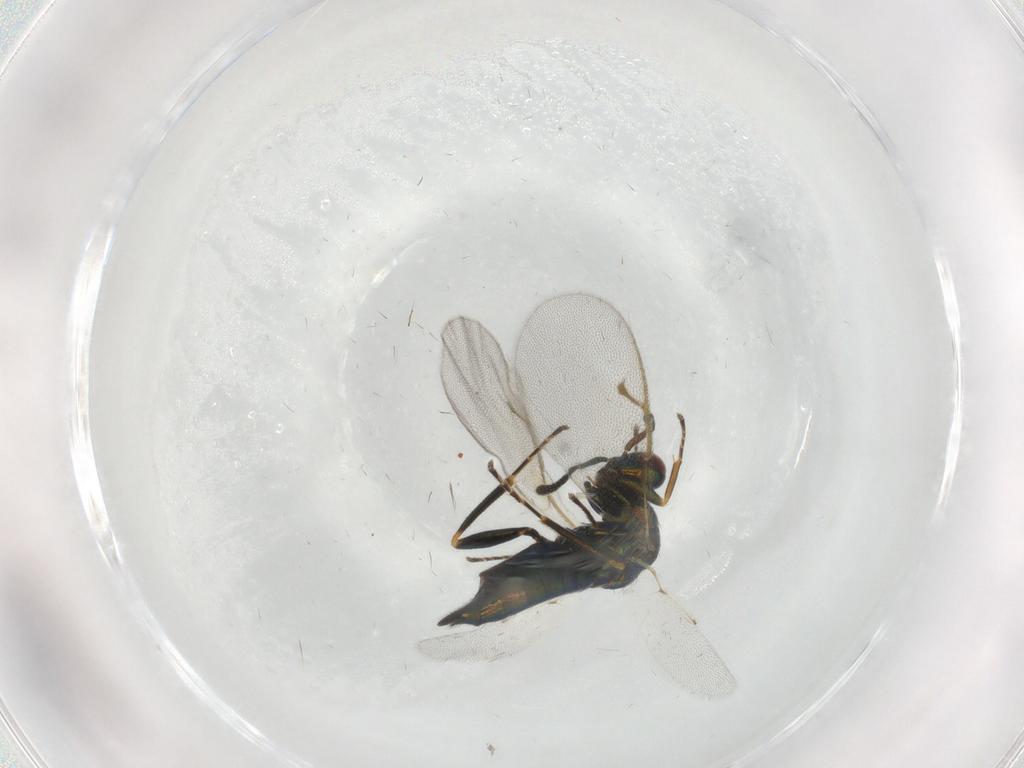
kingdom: Animalia
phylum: Arthropoda
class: Insecta
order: Hymenoptera
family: Pteromalidae
